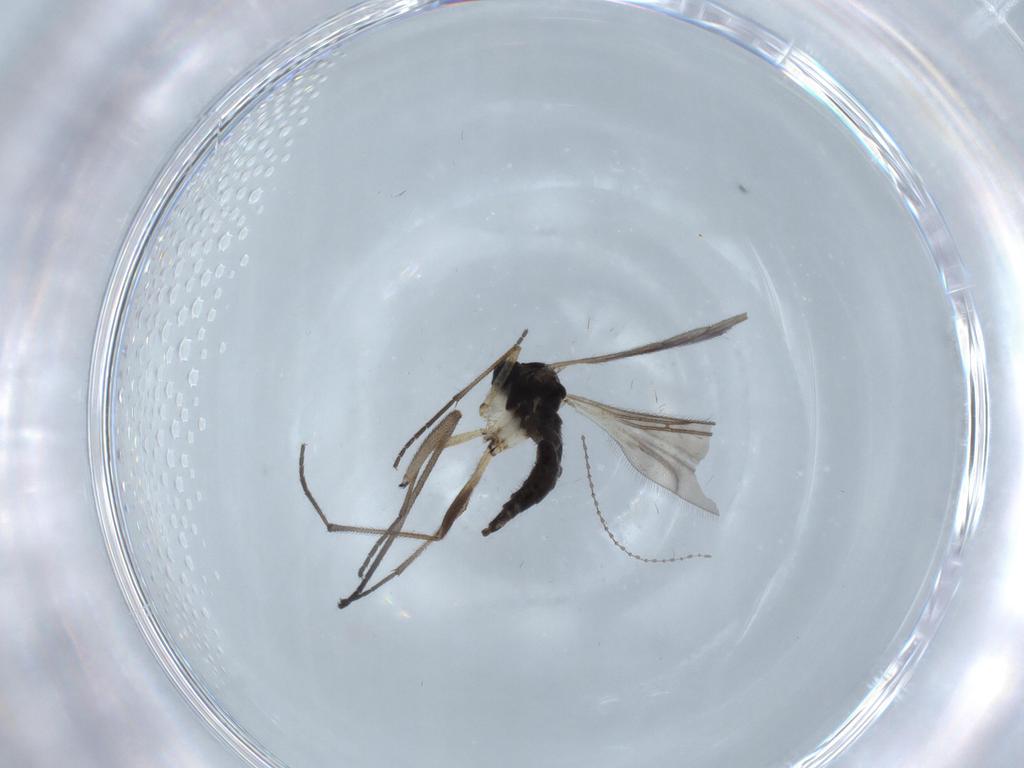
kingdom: Animalia
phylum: Arthropoda
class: Insecta
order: Diptera
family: Sciaridae
